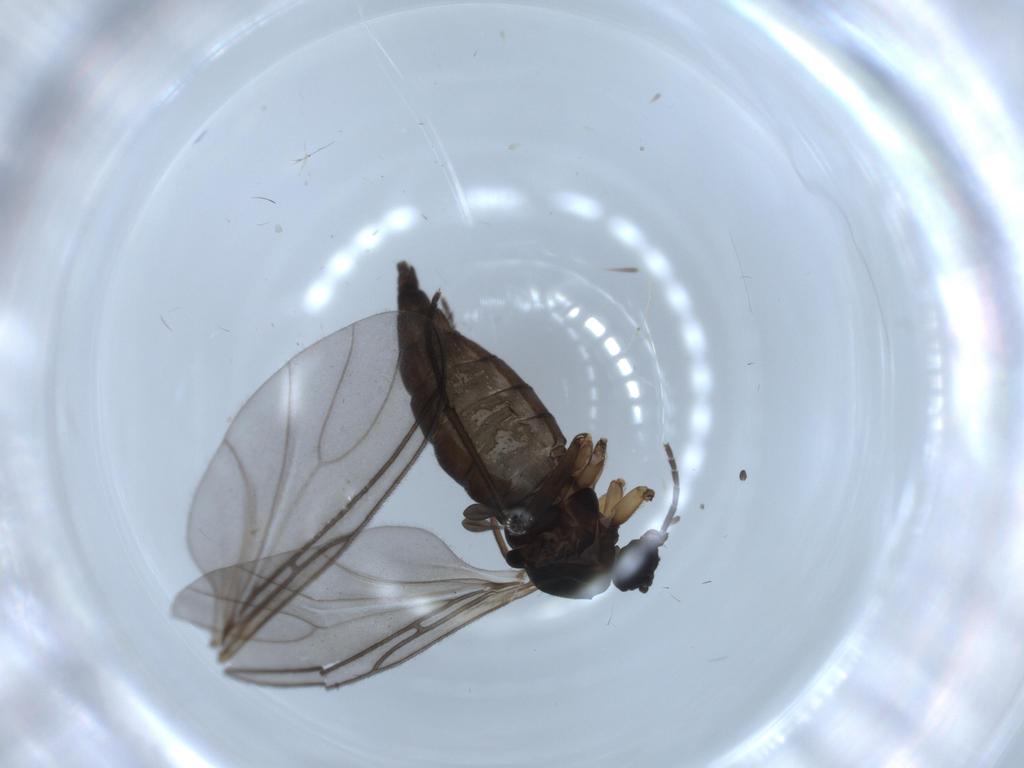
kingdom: Animalia
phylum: Arthropoda
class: Insecta
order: Diptera
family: Sciaridae
